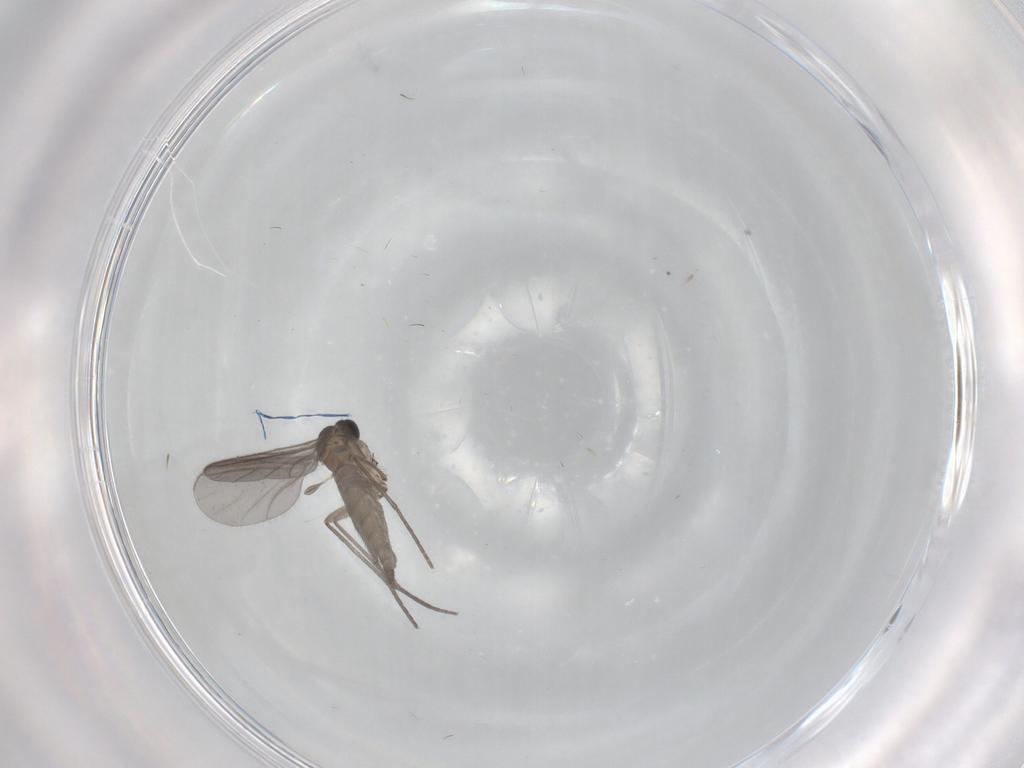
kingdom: Animalia
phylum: Arthropoda
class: Insecta
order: Diptera
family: Sciaridae
